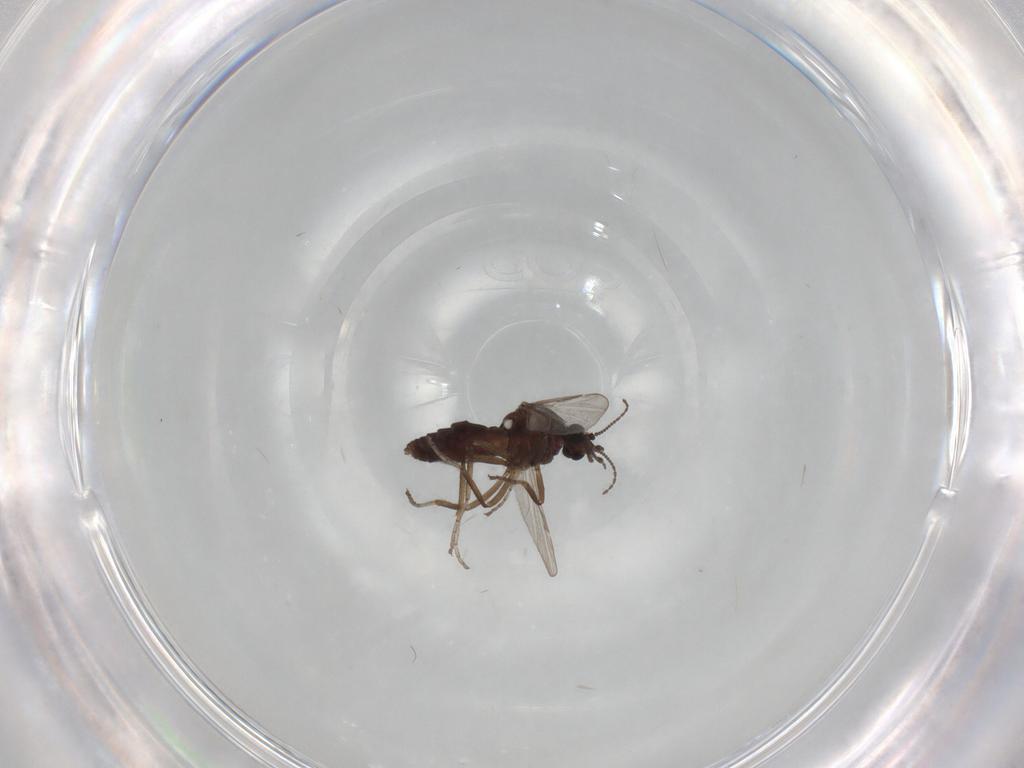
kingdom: Animalia
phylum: Arthropoda
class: Insecta
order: Diptera
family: Ceratopogonidae
